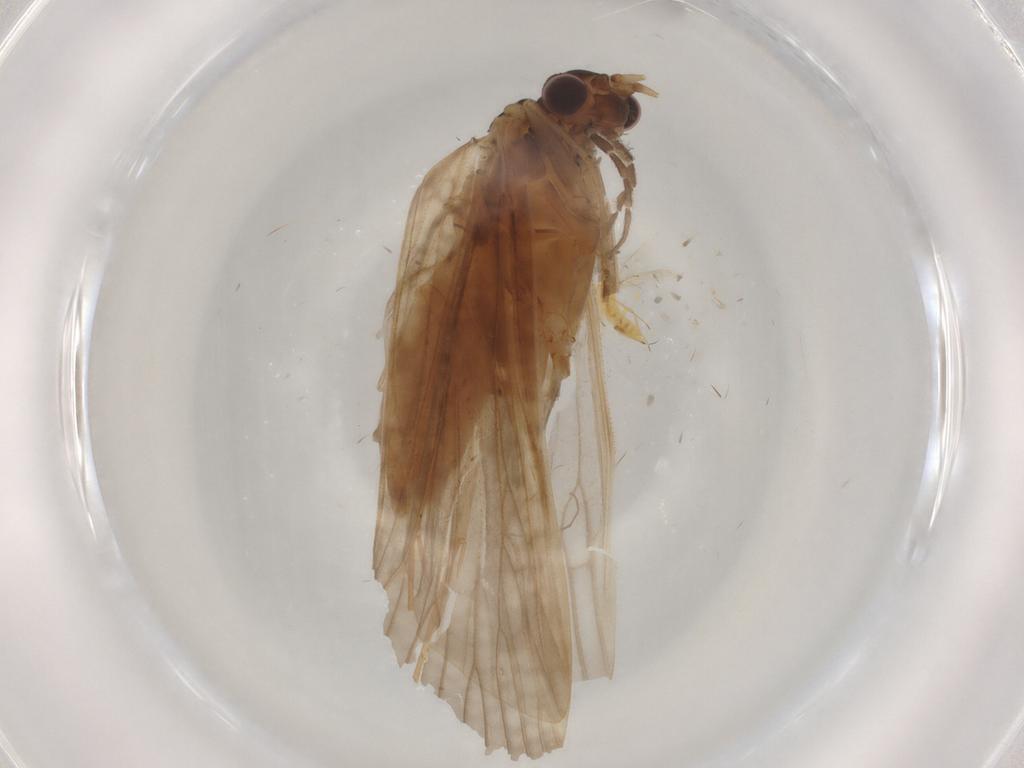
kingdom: Animalia
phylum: Arthropoda
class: Insecta
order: Trichoptera
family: Hydropsychidae
